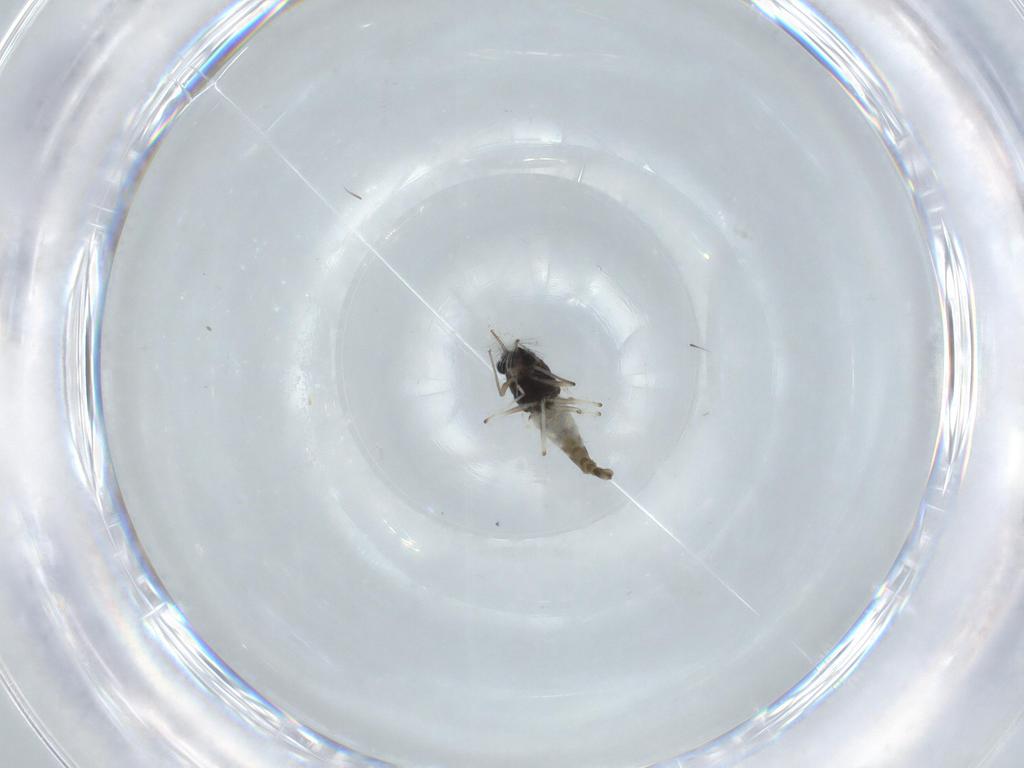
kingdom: Animalia
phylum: Arthropoda
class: Insecta
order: Diptera
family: Chironomidae
